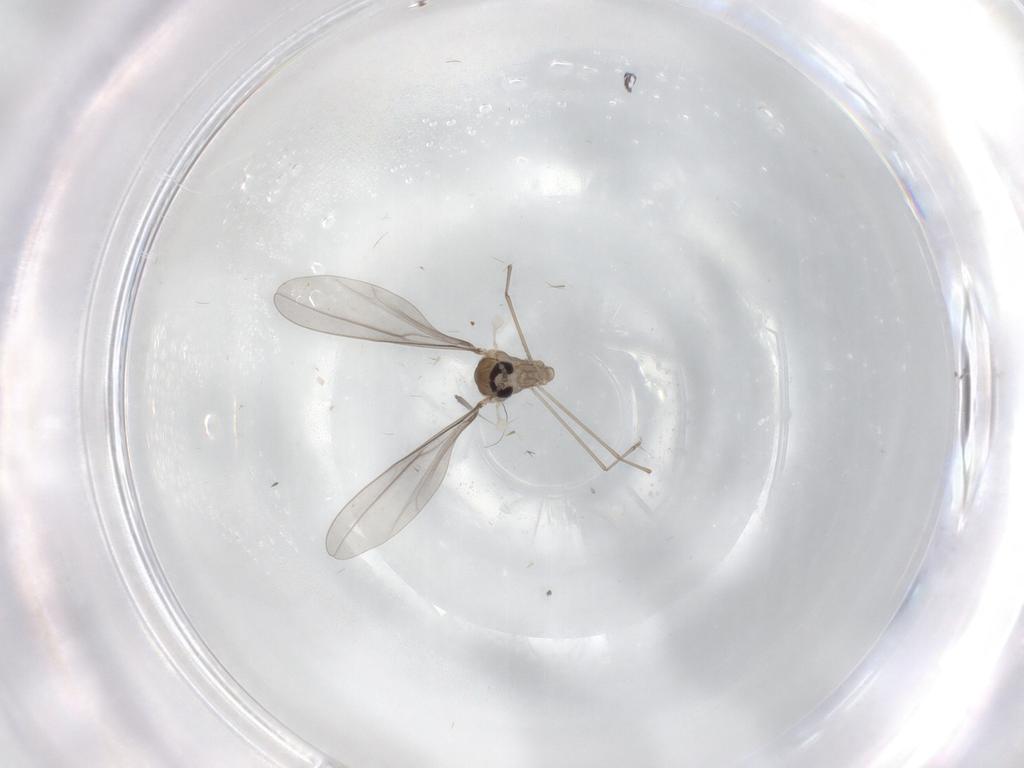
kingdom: Animalia
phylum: Arthropoda
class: Insecta
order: Diptera
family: Cecidomyiidae
